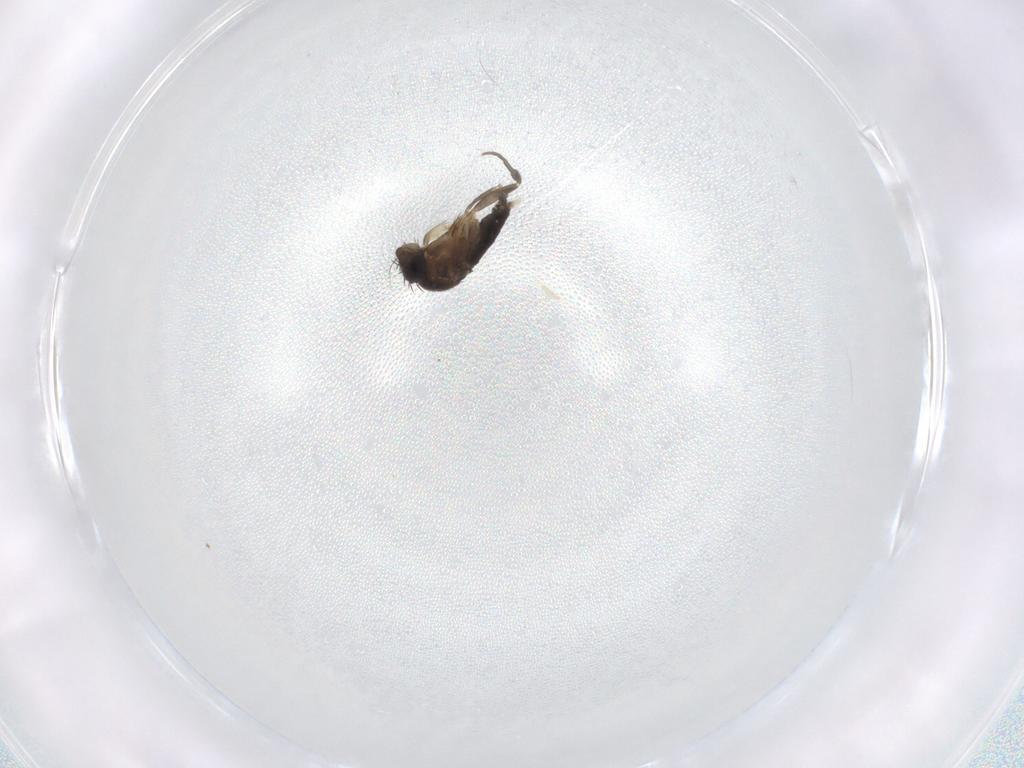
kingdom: Animalia
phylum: Arthropoda
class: Insecta
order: Diptera
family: Phoridae
